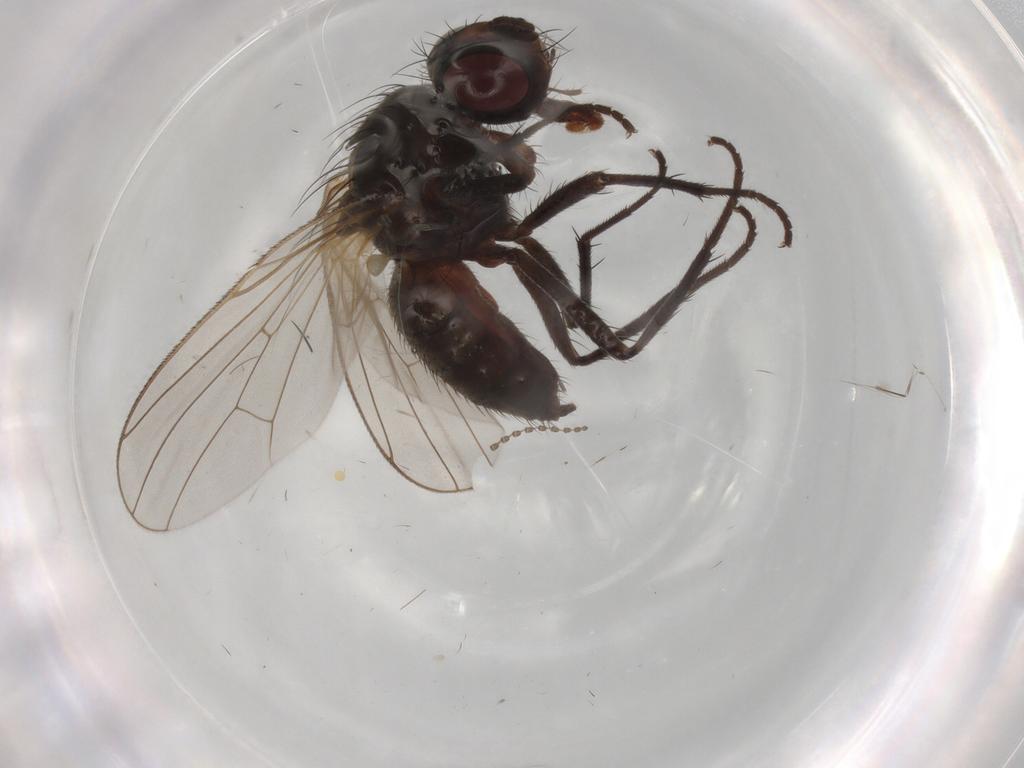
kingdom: Animalia
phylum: Arthropoda
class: Insecta
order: Diptera
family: Anthomyiidae
